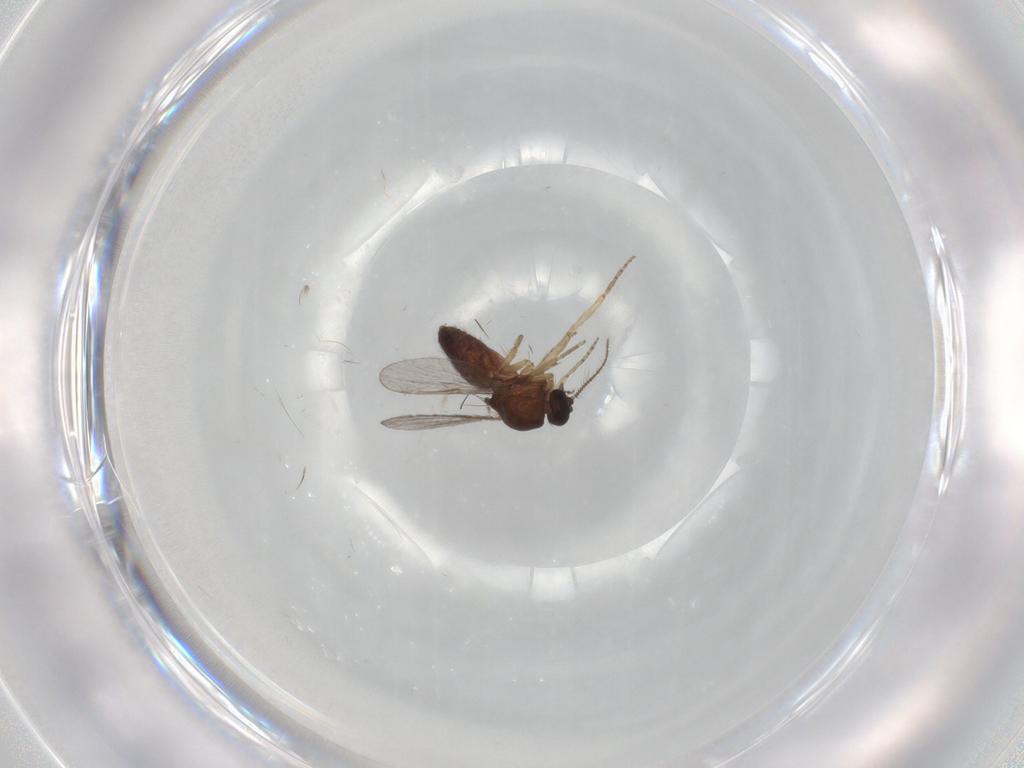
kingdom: Animalia
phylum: Arthropoda
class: Insecta
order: Diptera
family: Ceratopogonidae
